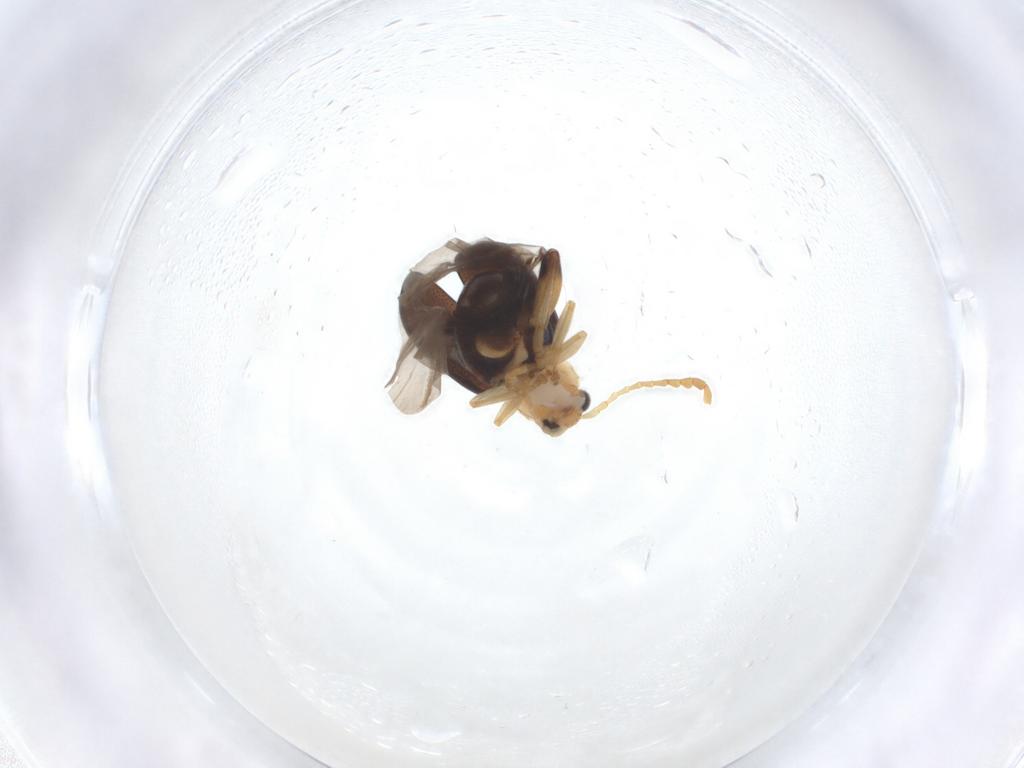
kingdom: Animalia
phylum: Arthropoda
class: Insecta
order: Coleoptera
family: Chrysomelidae
